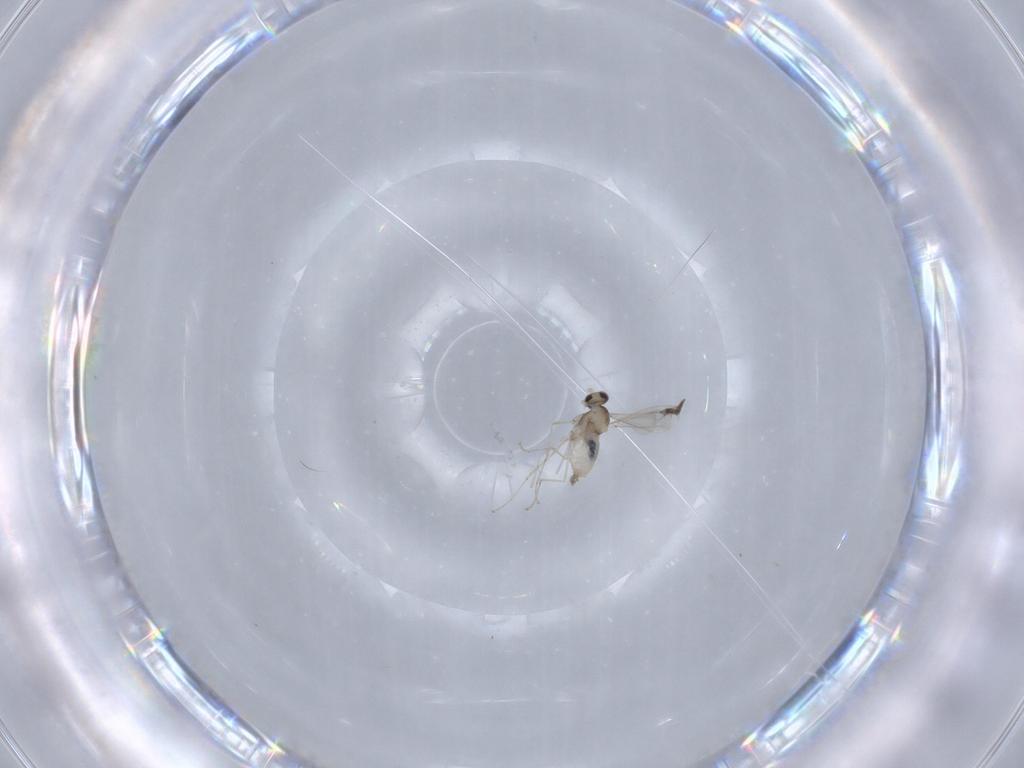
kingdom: Animalia
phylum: Arthropoda
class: Insecta
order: Diptera
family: Cecidomyiidae
